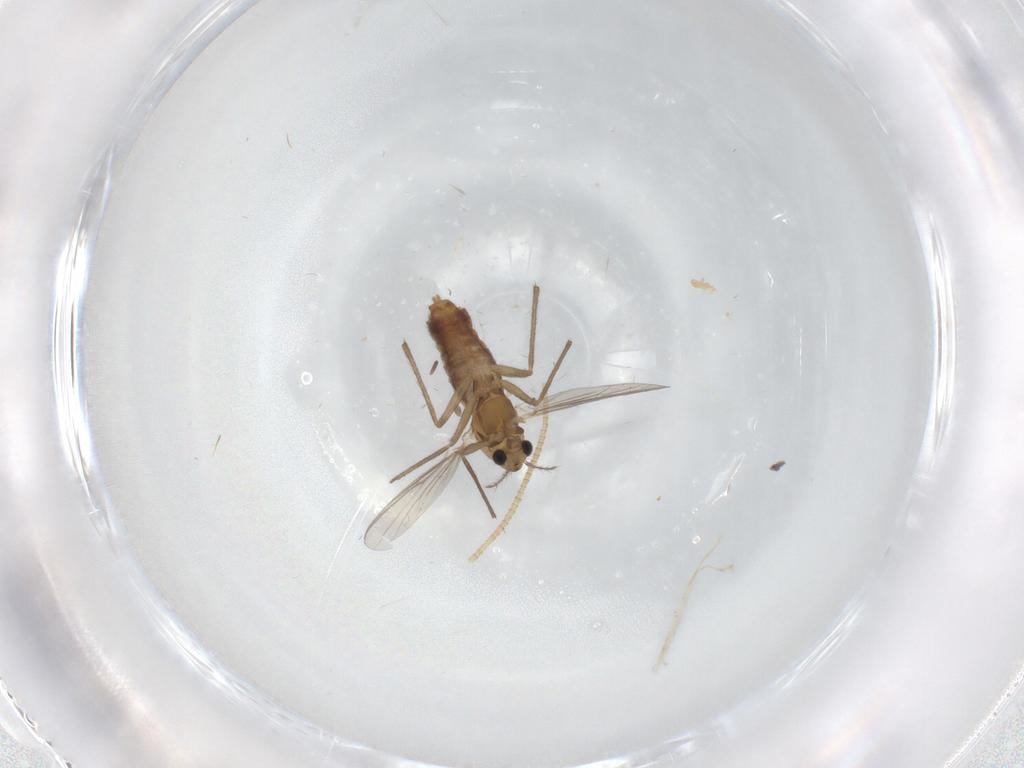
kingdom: Animalia
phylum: Arthropoda
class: Insecta
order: Diptera
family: Chironomidae
